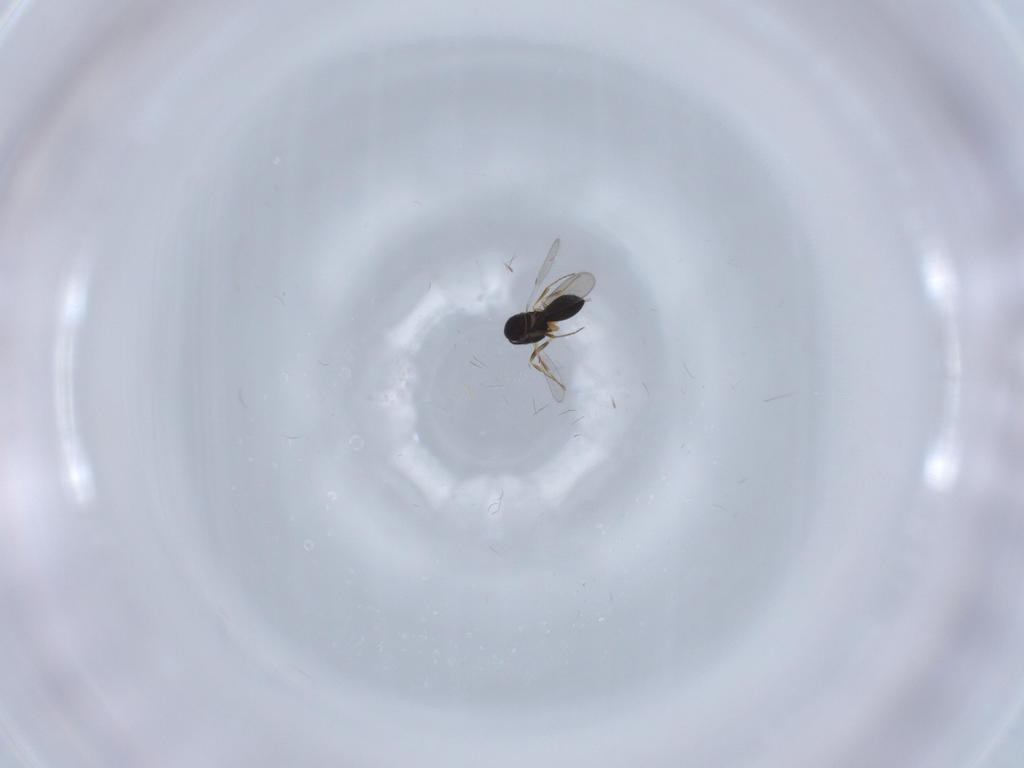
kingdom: Animalia
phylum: Arthropoda
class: Insecta
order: Hymenoptera
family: Scelionidae
